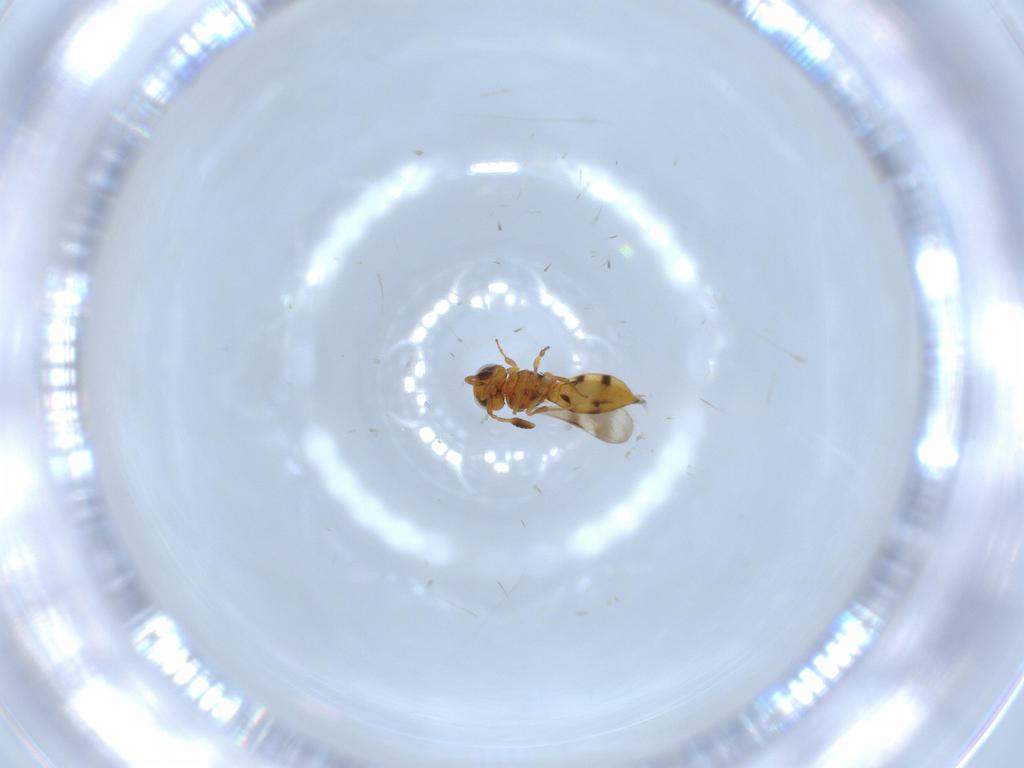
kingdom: Animalia
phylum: Arthropoda
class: Insecta
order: Hymenoptera
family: Scelionidae
